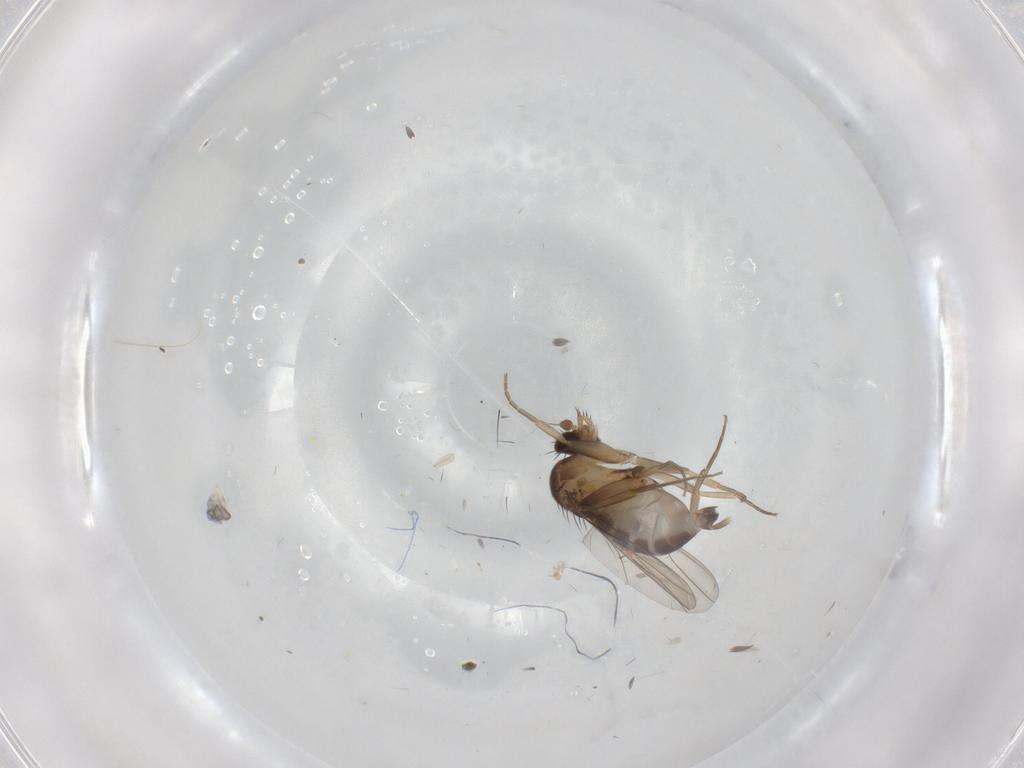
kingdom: Animalia
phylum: Arthropoda
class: Insecta
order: Diptera
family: Phoridae
